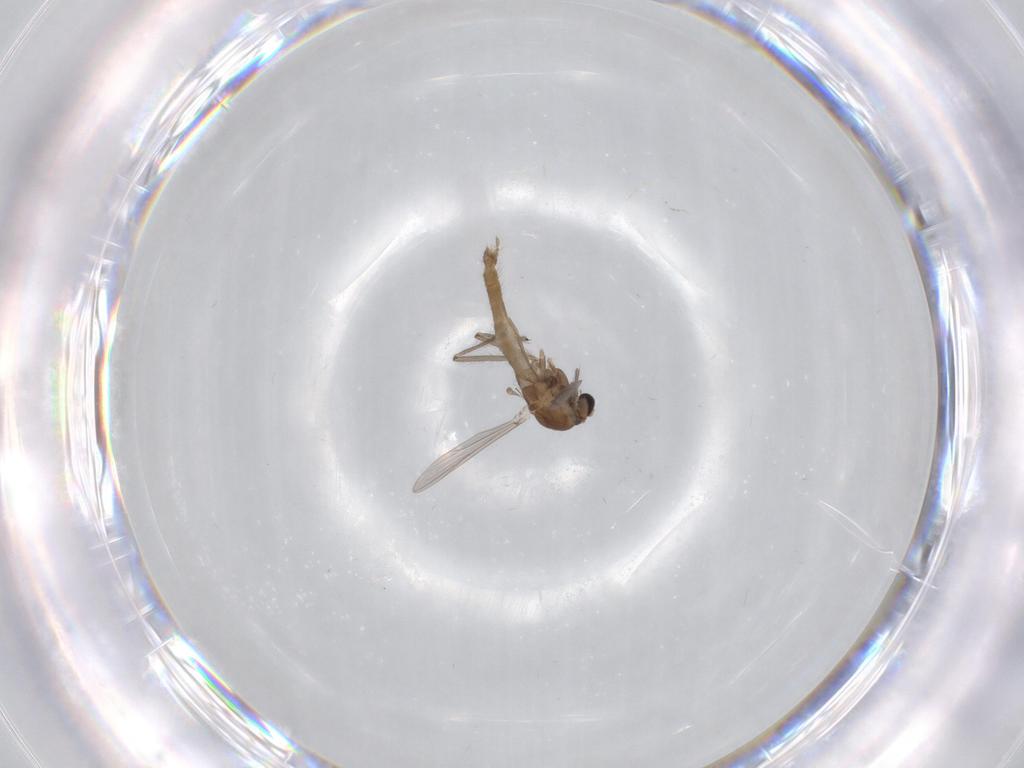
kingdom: Animalia
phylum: Arthropoda
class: Insecta
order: Diptera
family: Chironomidae
